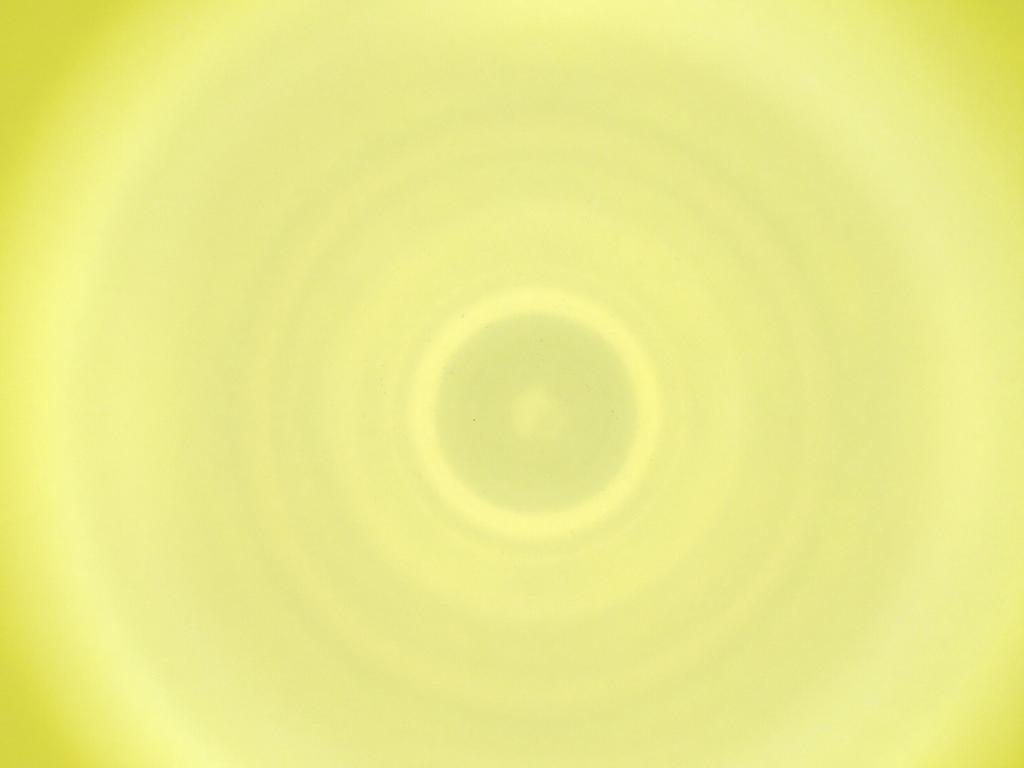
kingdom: Animalia
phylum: Arthropoda
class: Insecta
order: Diptera
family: Cecidomyiidae
